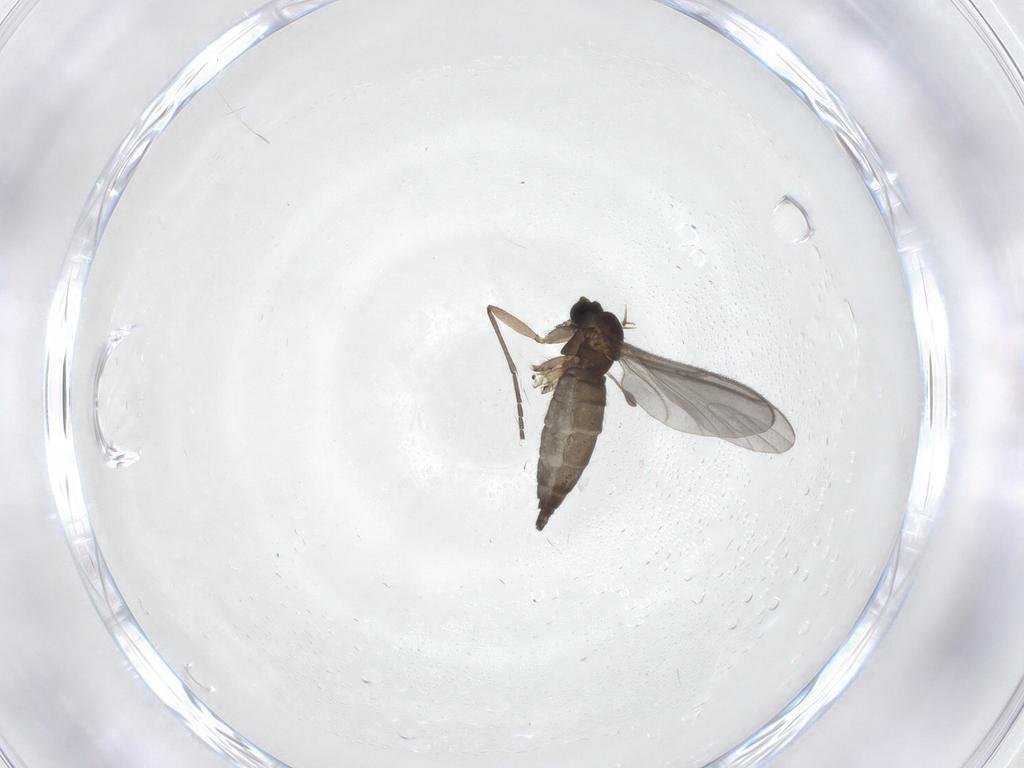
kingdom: Animalia
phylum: Arthropoda
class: Insecta
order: Diptera
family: Sciaridae
